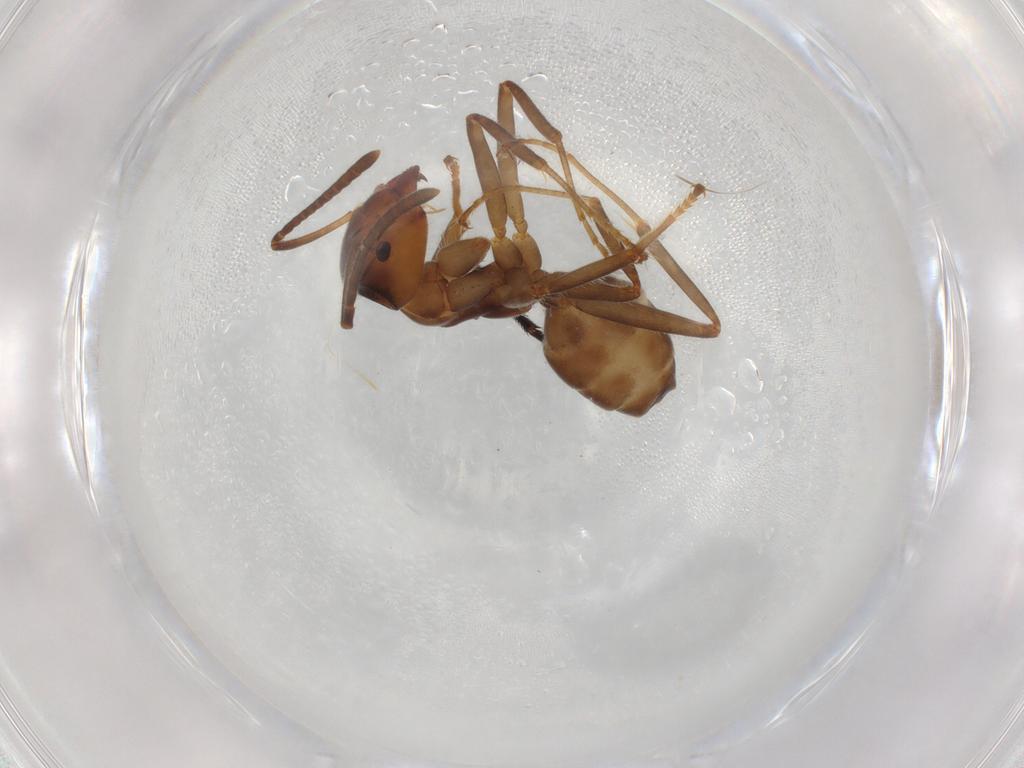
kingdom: Animalia
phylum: Arthropoda
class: Insecta
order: Hymenoptera
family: Formicidae
